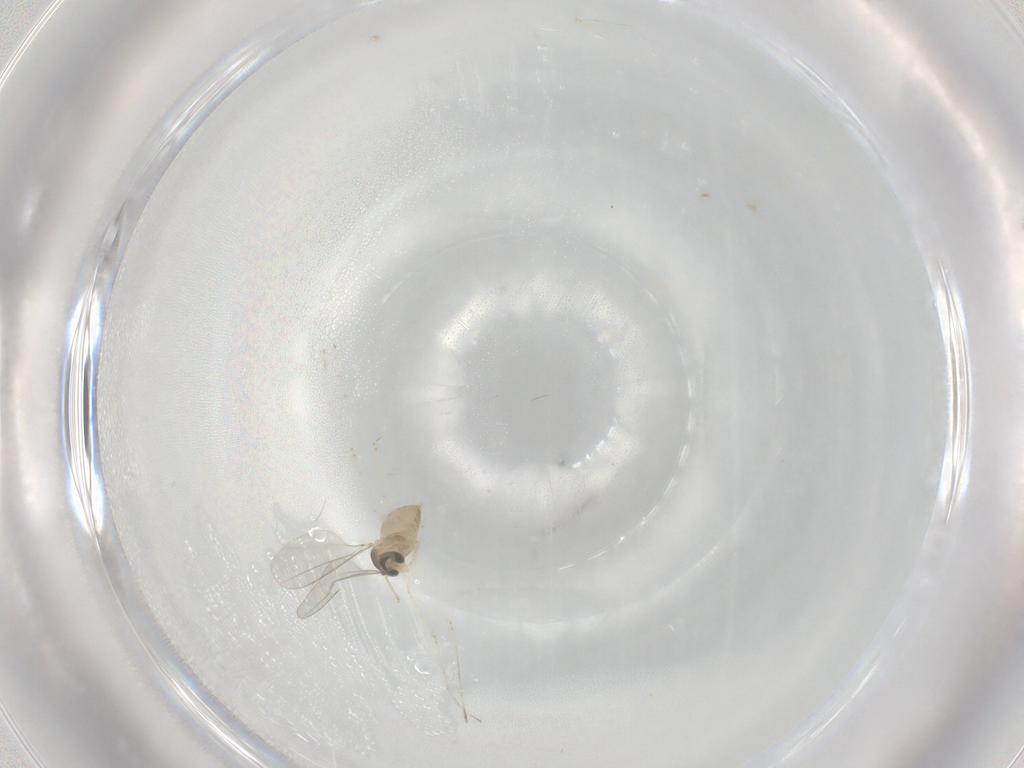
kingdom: Animalia
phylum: Arthropoda
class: Insecta
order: Diptera
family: Cecidomyiidae
